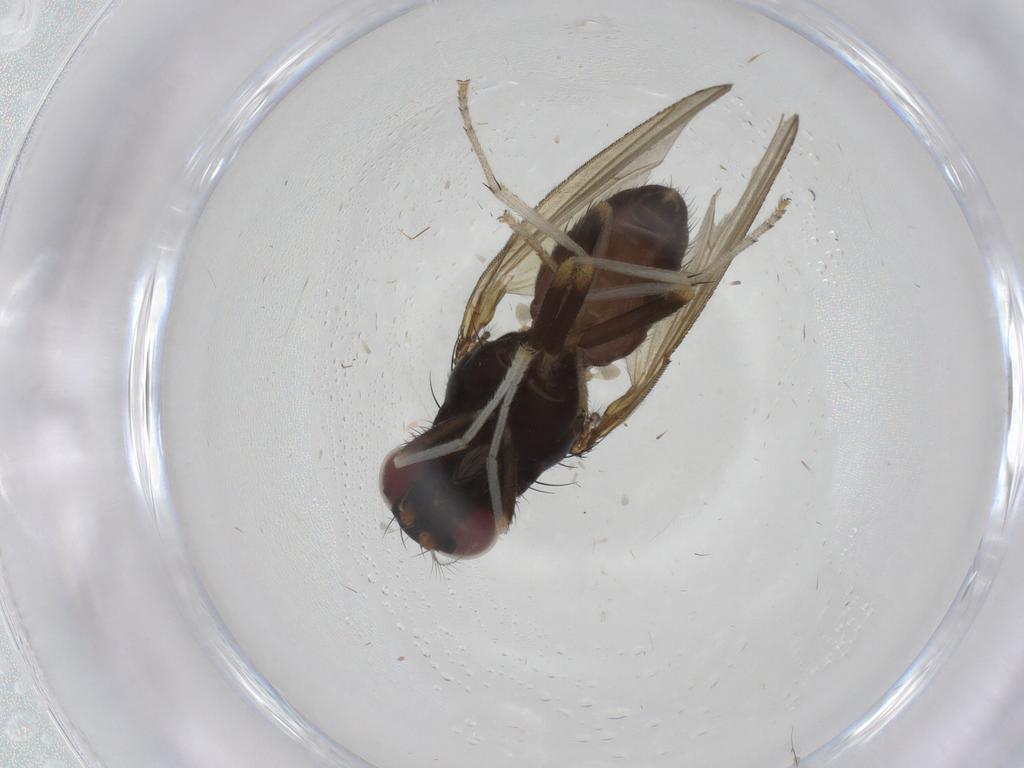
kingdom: Animalia
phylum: Arthropoda
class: Insecta
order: Diptera
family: Lauxaniidae
